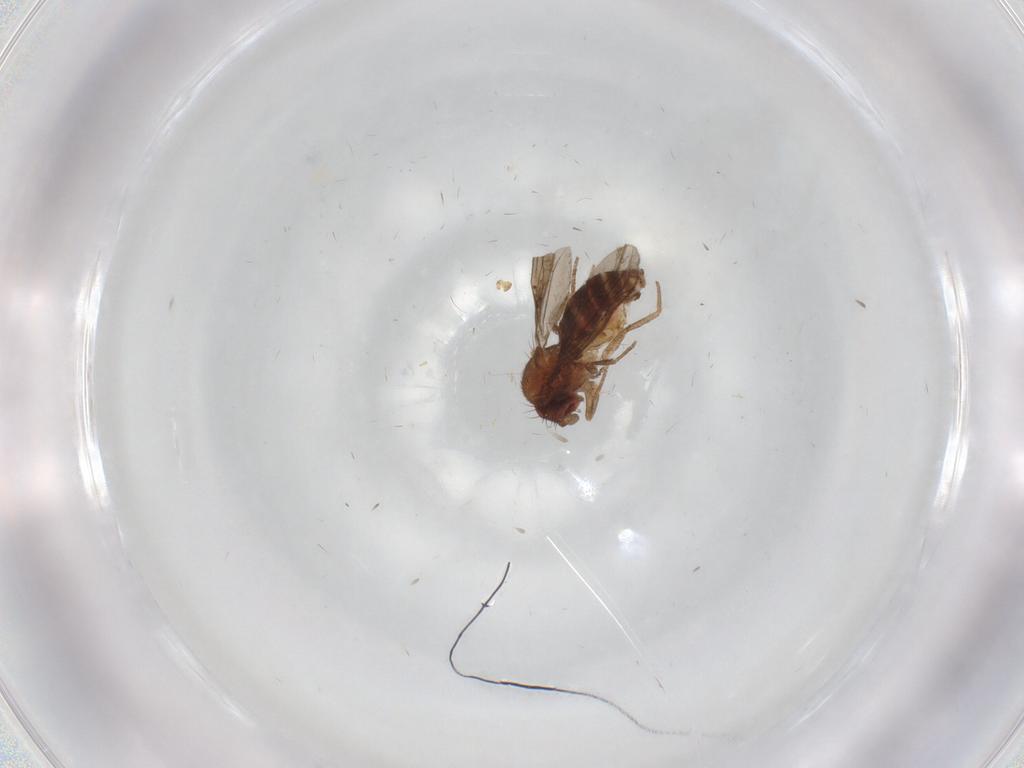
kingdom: Animalia
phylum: Arthropoda
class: Insecta
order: Diptera
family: Drosophilidae
